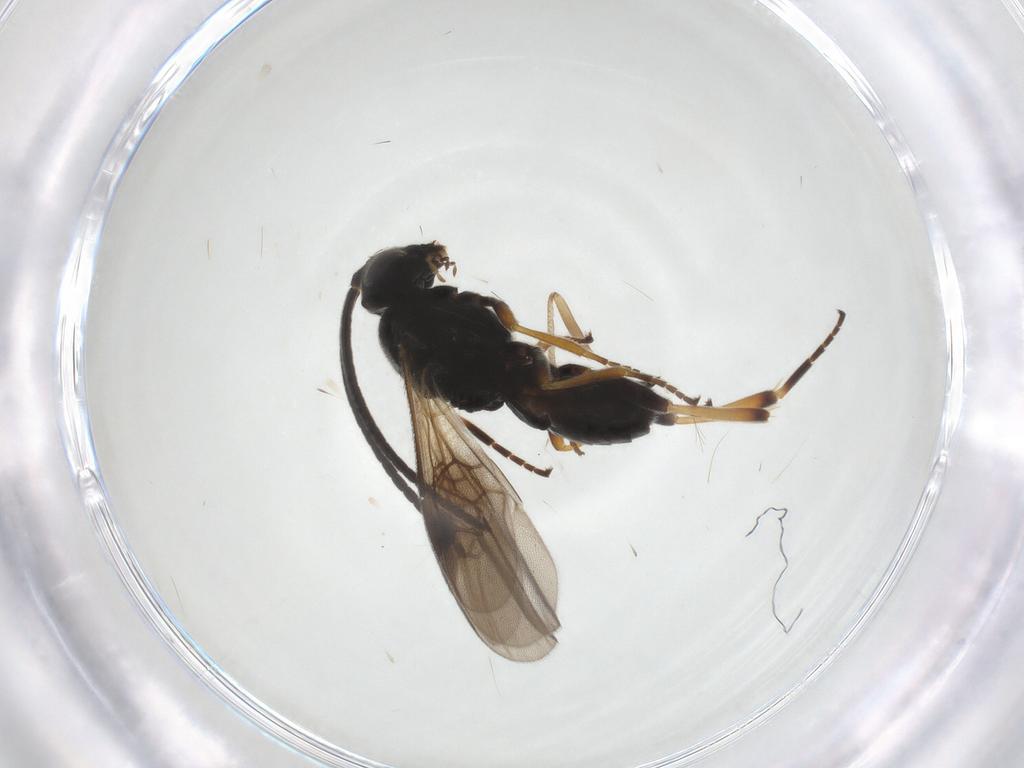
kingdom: Animalia
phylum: Arthropoda
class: Insecta
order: Hymenoptera
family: Braconidae
